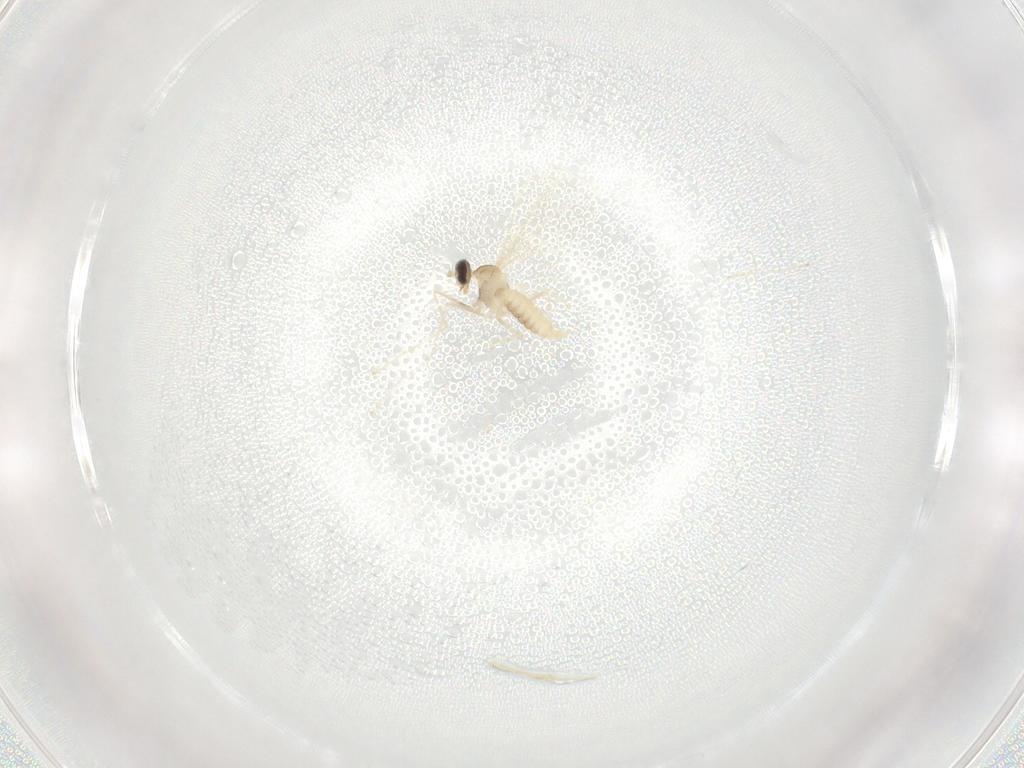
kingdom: Animalia
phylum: Arthropoda
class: Insecta
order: Diptera
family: Cecidomyiidae
